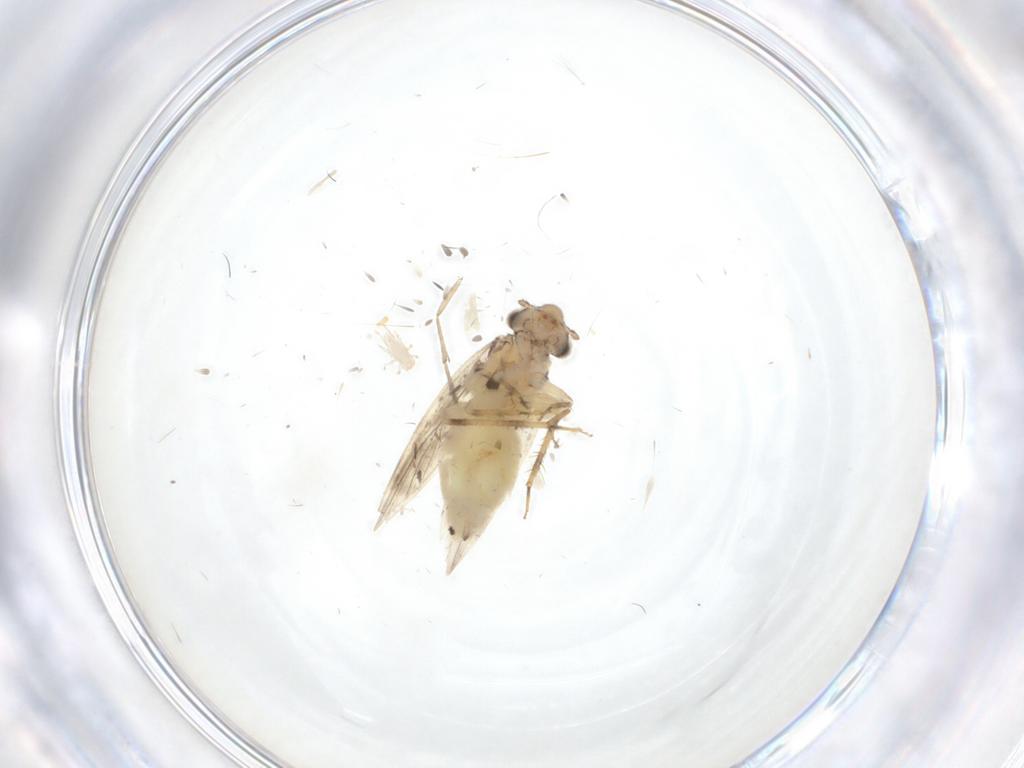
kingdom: Animalia
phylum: Arthropoda
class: Insecta
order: Psocodea
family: Lepidopsocidae
